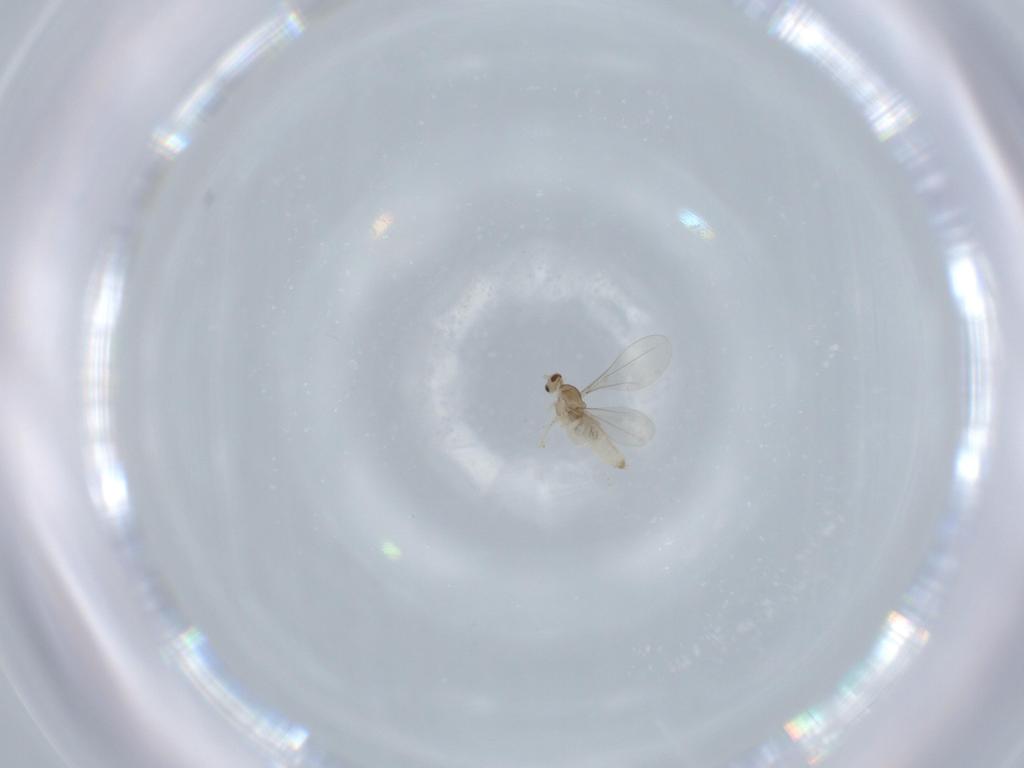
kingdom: Animalia
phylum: Arthropoda
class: Insecta
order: Diptera
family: Cecidomyiidae
